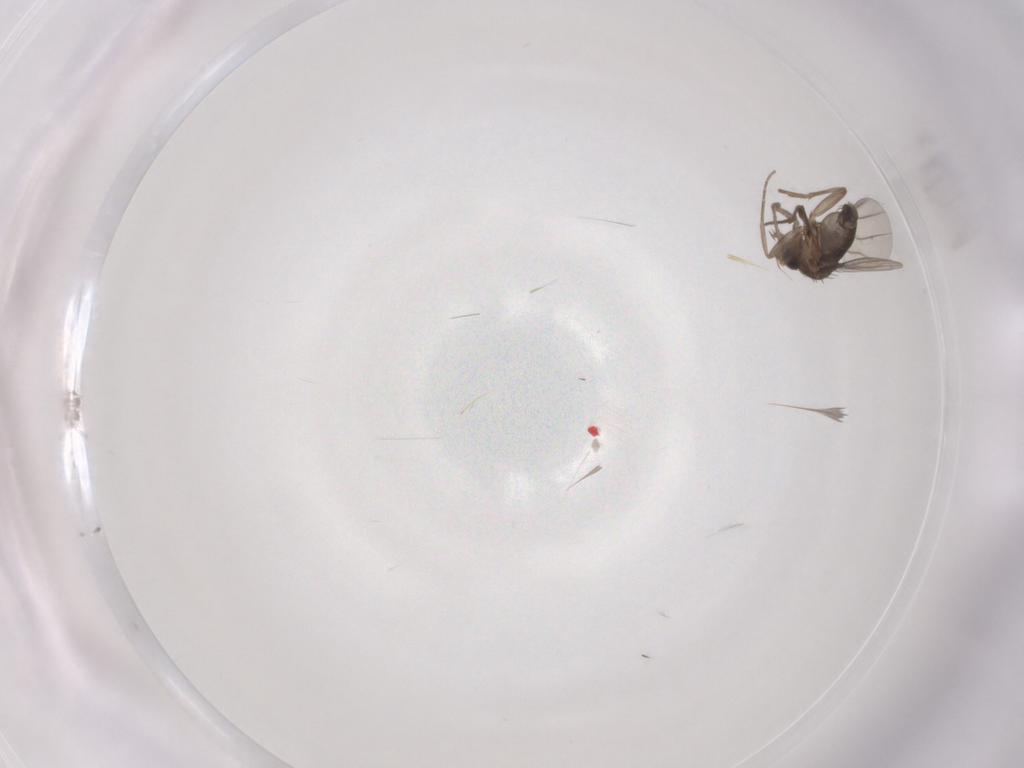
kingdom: Animalia
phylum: Arthropoda
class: Insecta
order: Diptera
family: Phoridae
